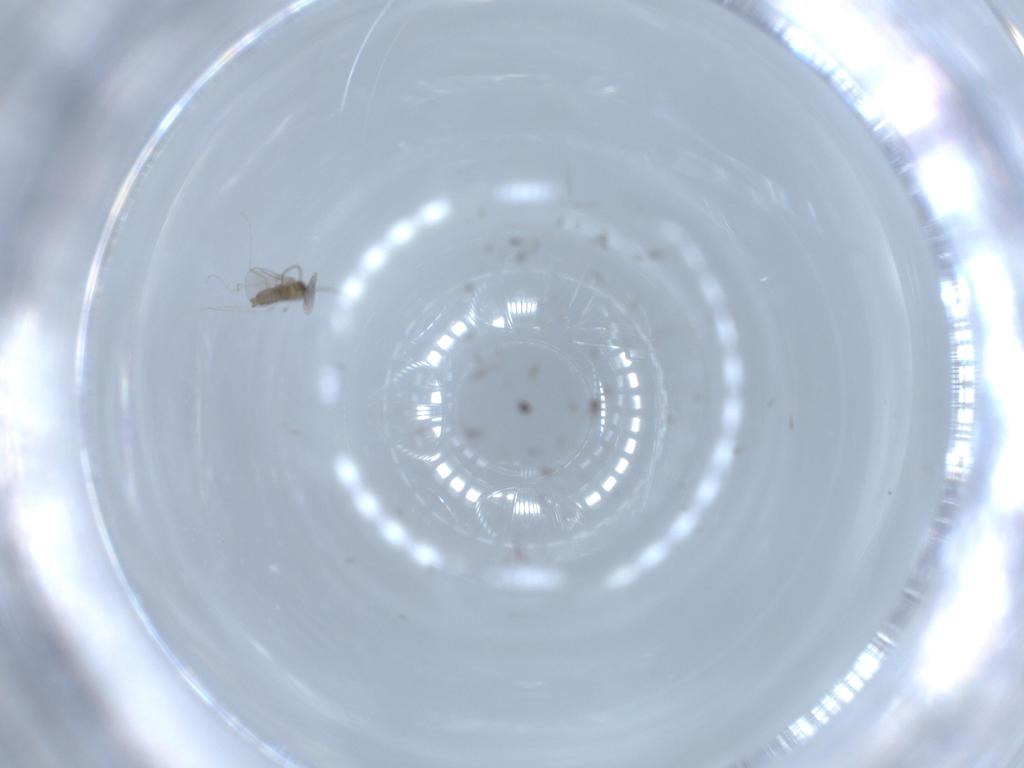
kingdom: Animalia
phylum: Arthropoda
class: Insecta
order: Diptera
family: Cecidomyiidae
